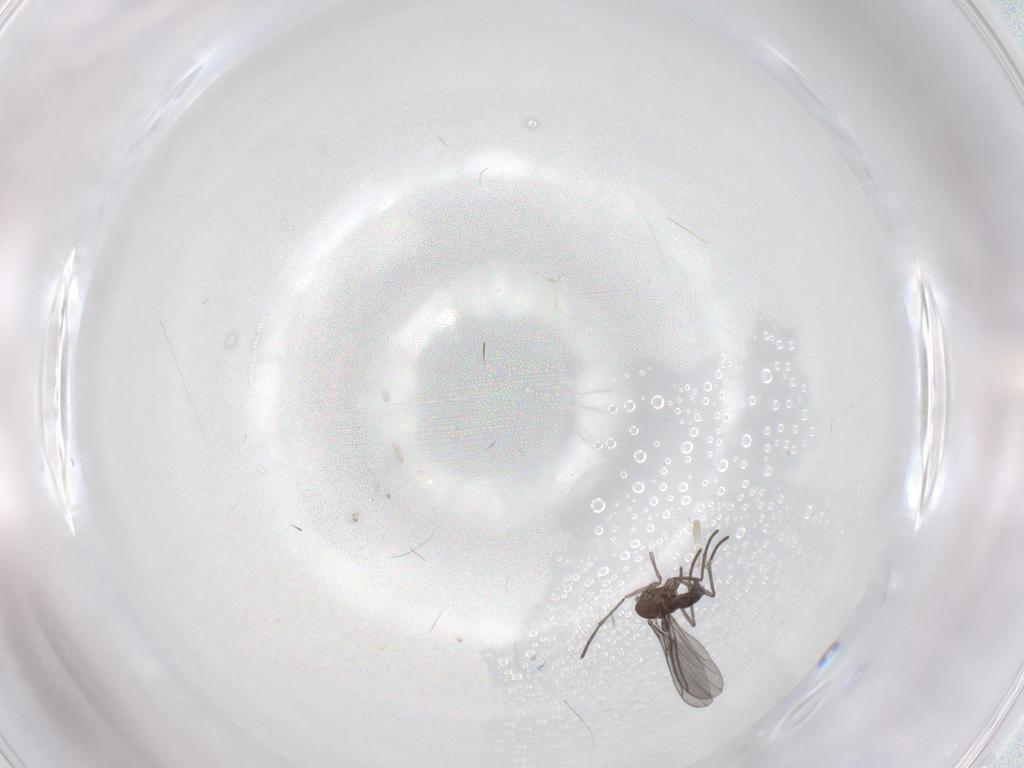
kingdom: Animalia
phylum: Arthropoda
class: Insecta
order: Diptera
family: Sciaridae
